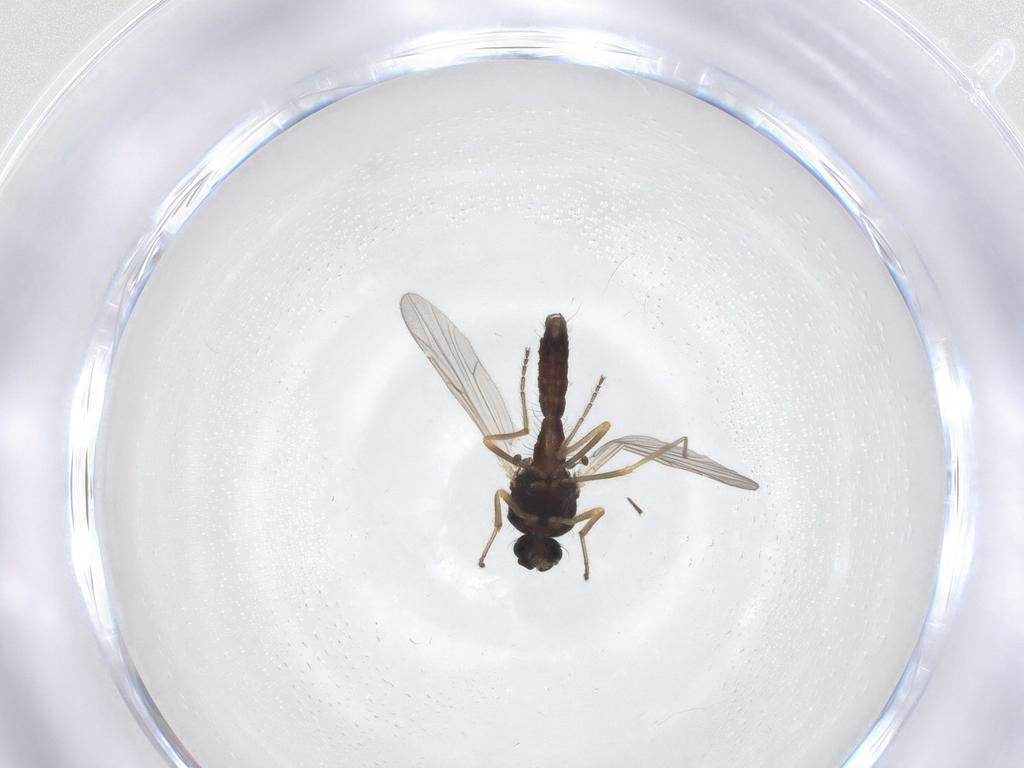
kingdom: Animalia
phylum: Arthropoda
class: Insecta
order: Diptera
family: Ceratopogonidae
